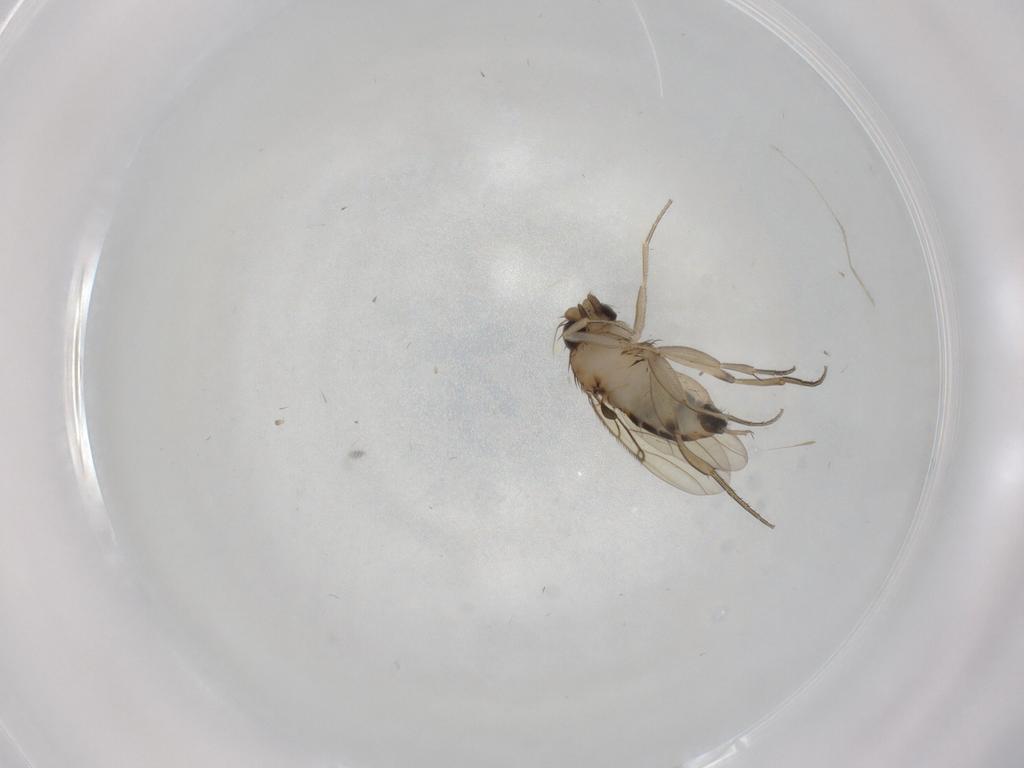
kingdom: Animalia
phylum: Arthropoda
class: Insecta
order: Diptera
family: Phoridae
